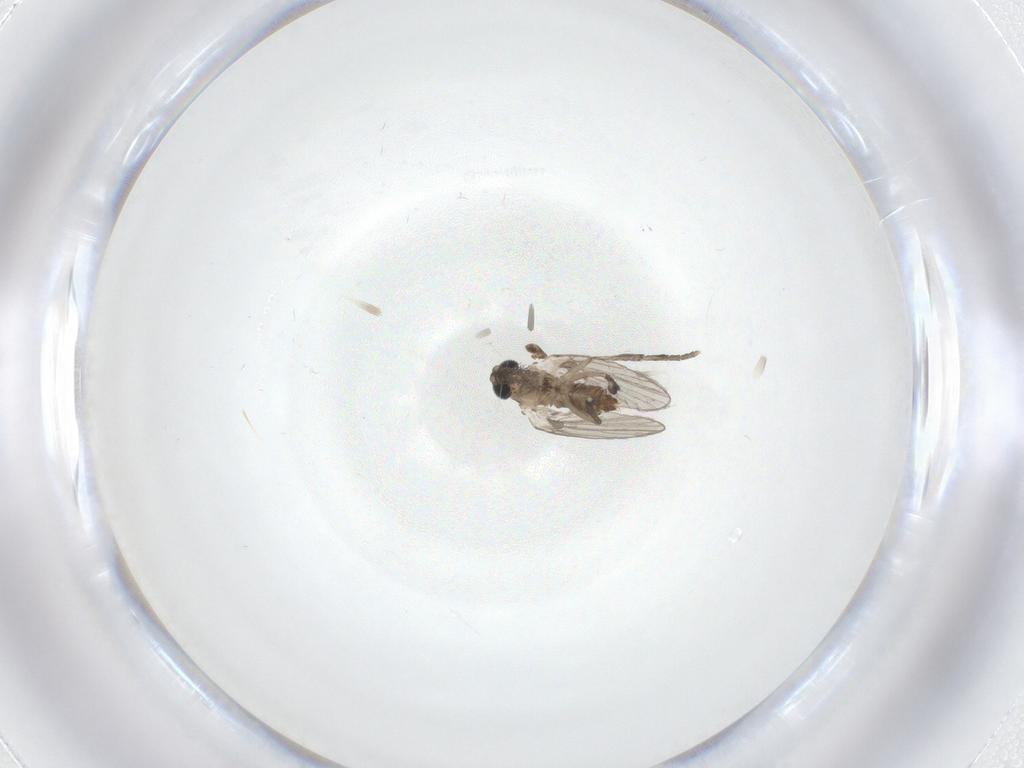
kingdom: Animalia
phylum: Arthropoda
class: Insecta
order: Diptera
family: Psychodidae
